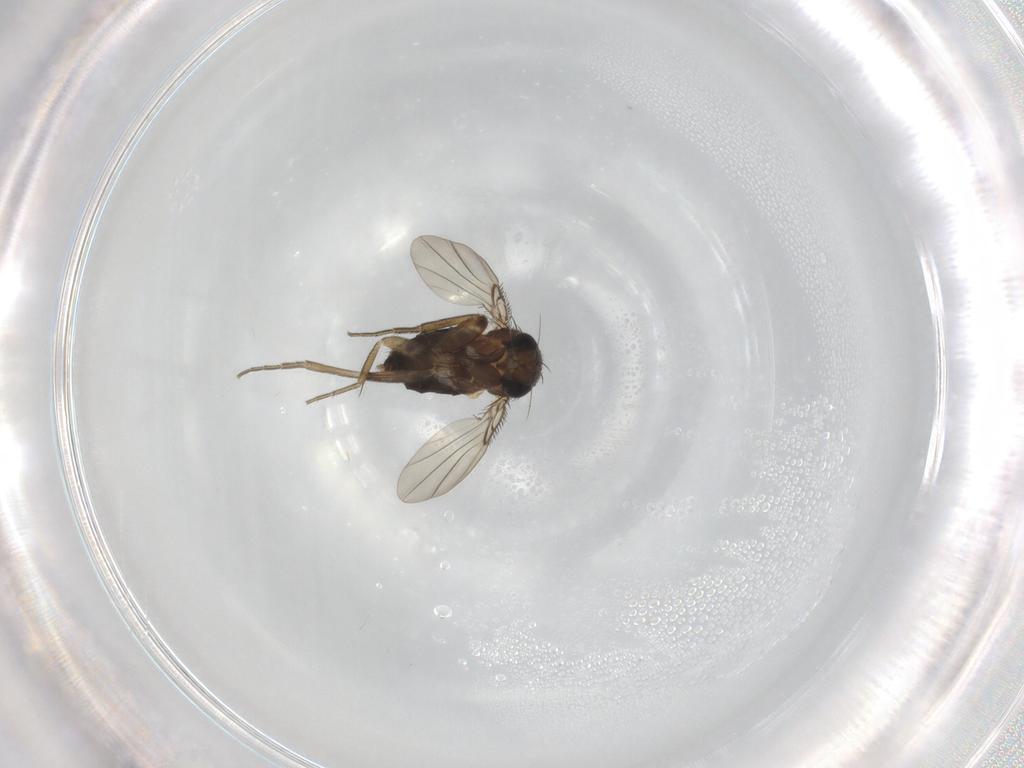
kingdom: Animalia
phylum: Arthropoda
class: Insecta
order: Diptera
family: Phoridae
